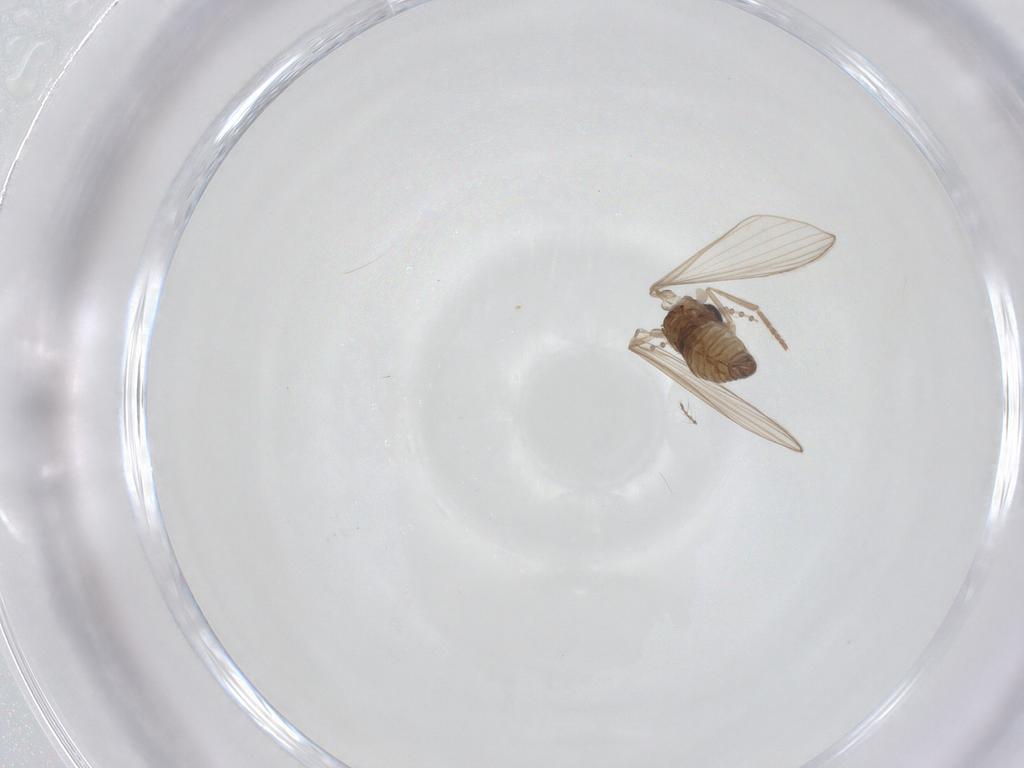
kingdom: Animalia
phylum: Arthropoda
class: Insecta
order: Diptera
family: Psychodidae
